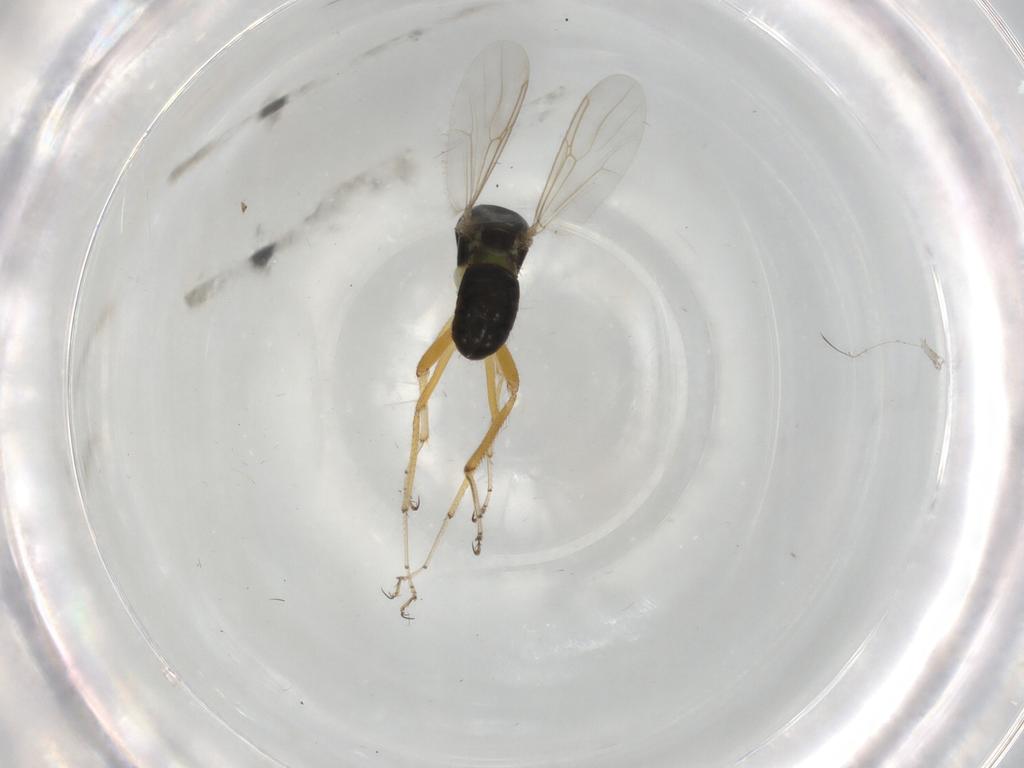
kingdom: Animalia
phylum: Arthropoda
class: Insecta
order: Diptera
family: Ceratopogonidae
